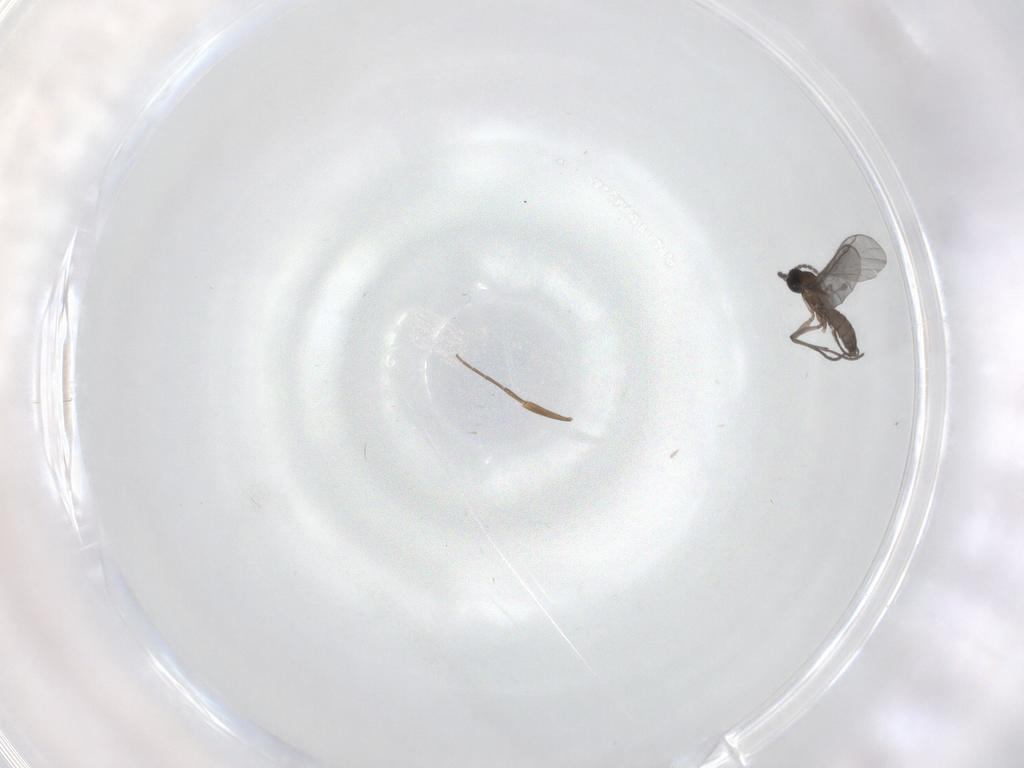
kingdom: Animalia
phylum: Arthropoda
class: Insecta
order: Diptera
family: Phoridae
